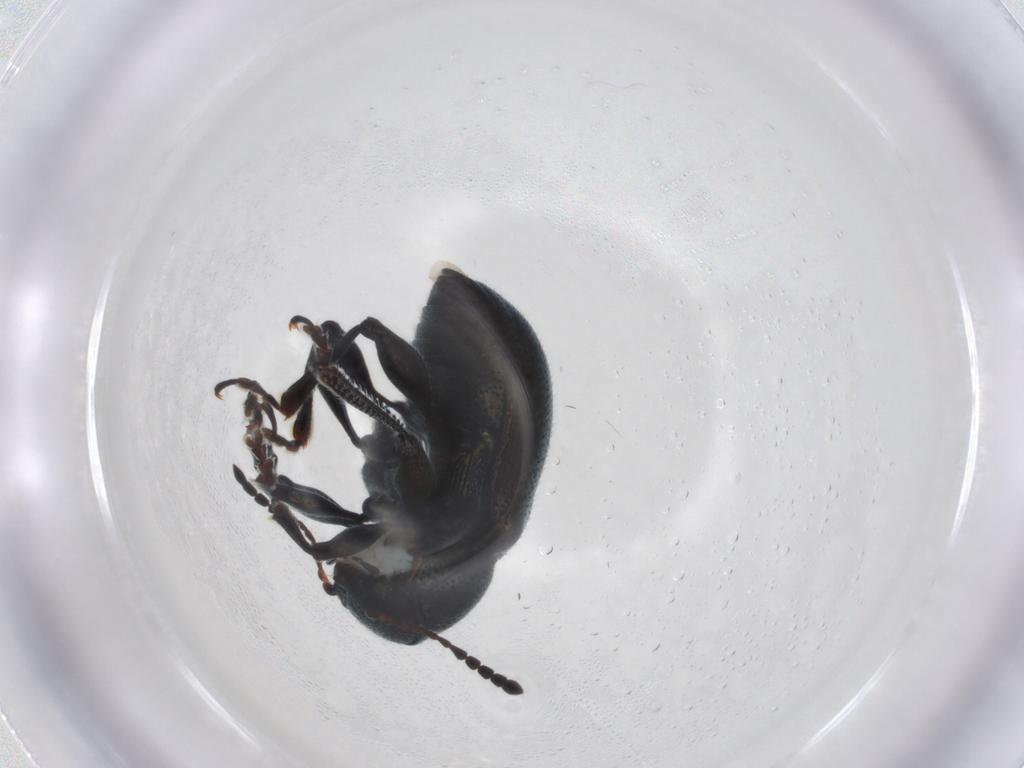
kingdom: Animalia
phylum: Arthropoda
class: Insecta
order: Coleoptera
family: Chrysomelidae
